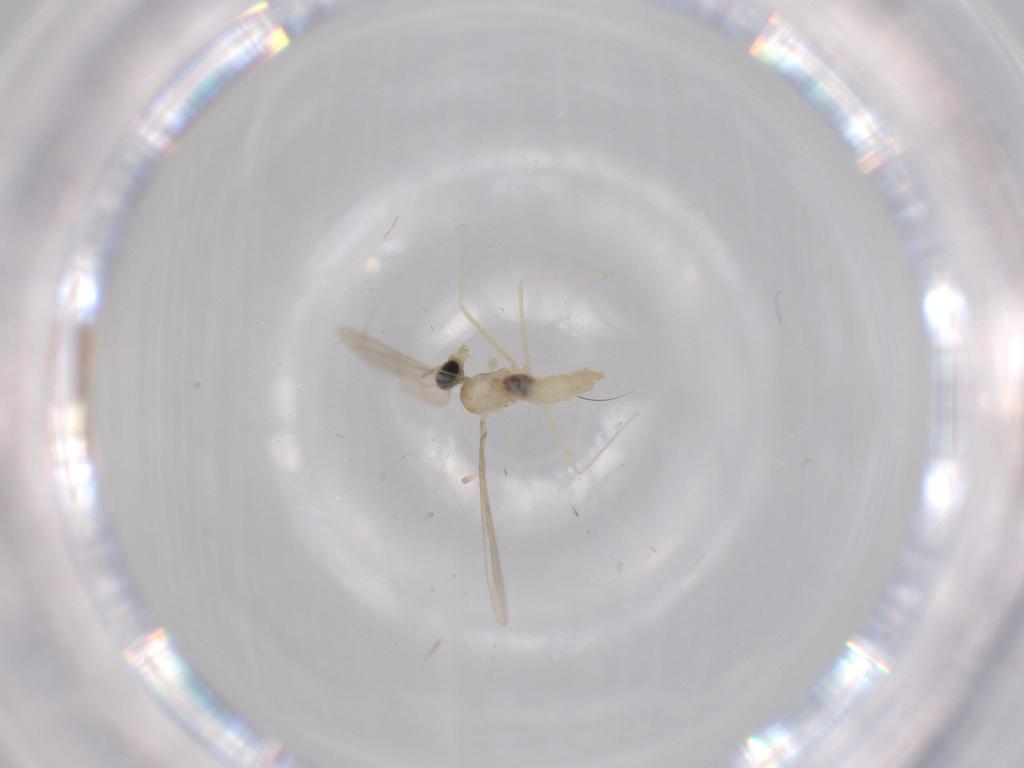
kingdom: Animalia
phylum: Arthropoda
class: Insecta
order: Diptera
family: Cecidomyiidae
